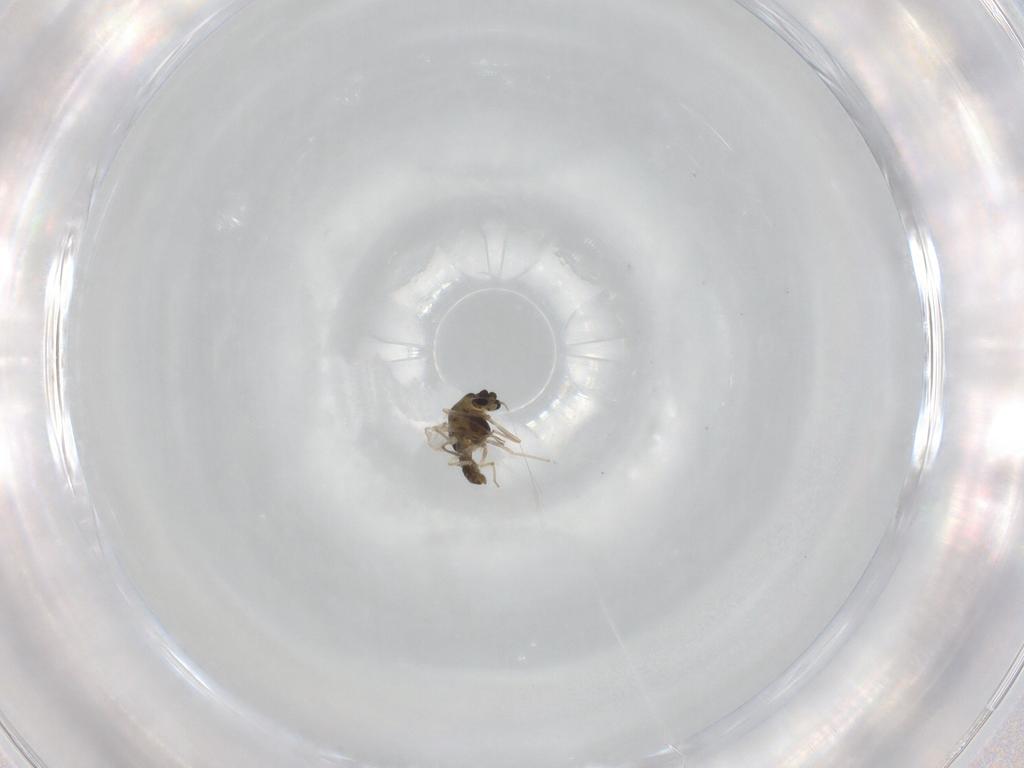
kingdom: Animalia
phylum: Arthropoda
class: Insecta
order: Diptera
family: Chironomidae
